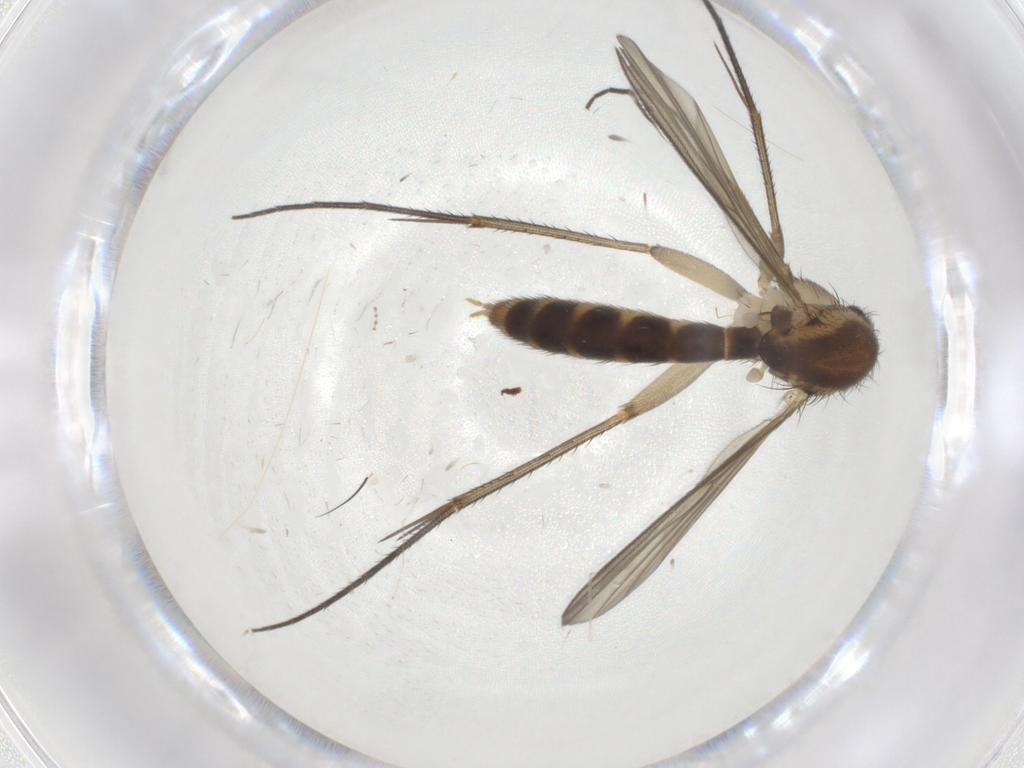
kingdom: Animalia
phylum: Arthropoda
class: Insecta
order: Diptera
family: Mycetophilidae
